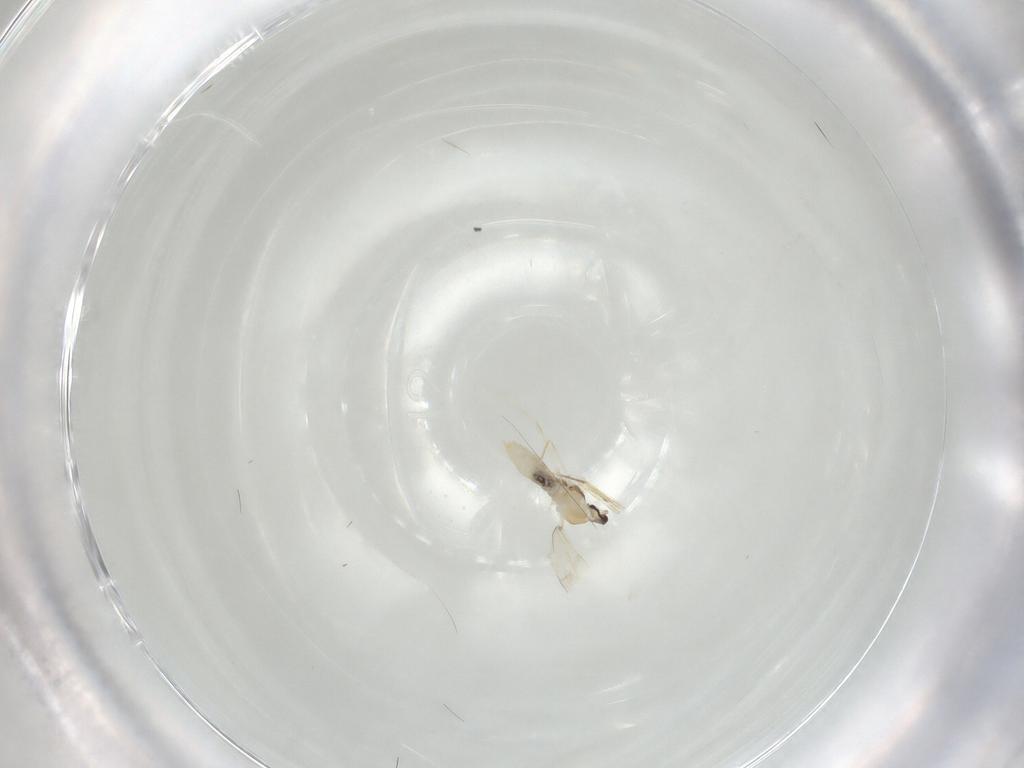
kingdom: Animalia
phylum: Arthropoda
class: Insecta
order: Diptera
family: Cecidomyiidae
